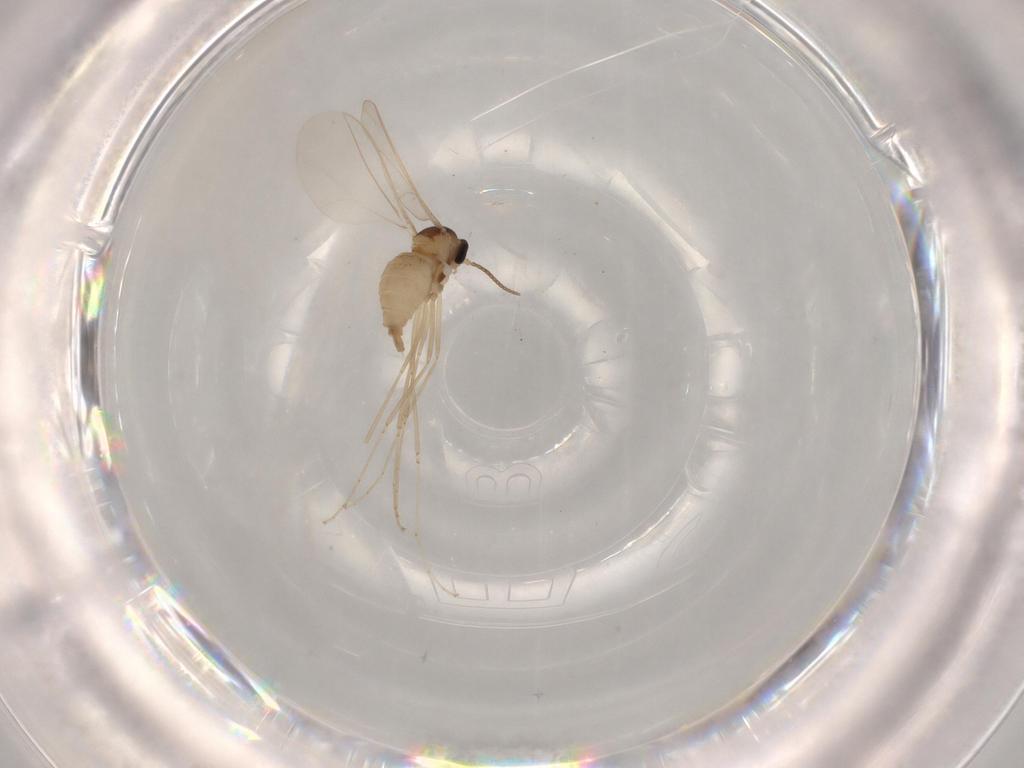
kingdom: Animalia
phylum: Arthropoda
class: Insecta
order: Diptera
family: Cecidomyiidae
